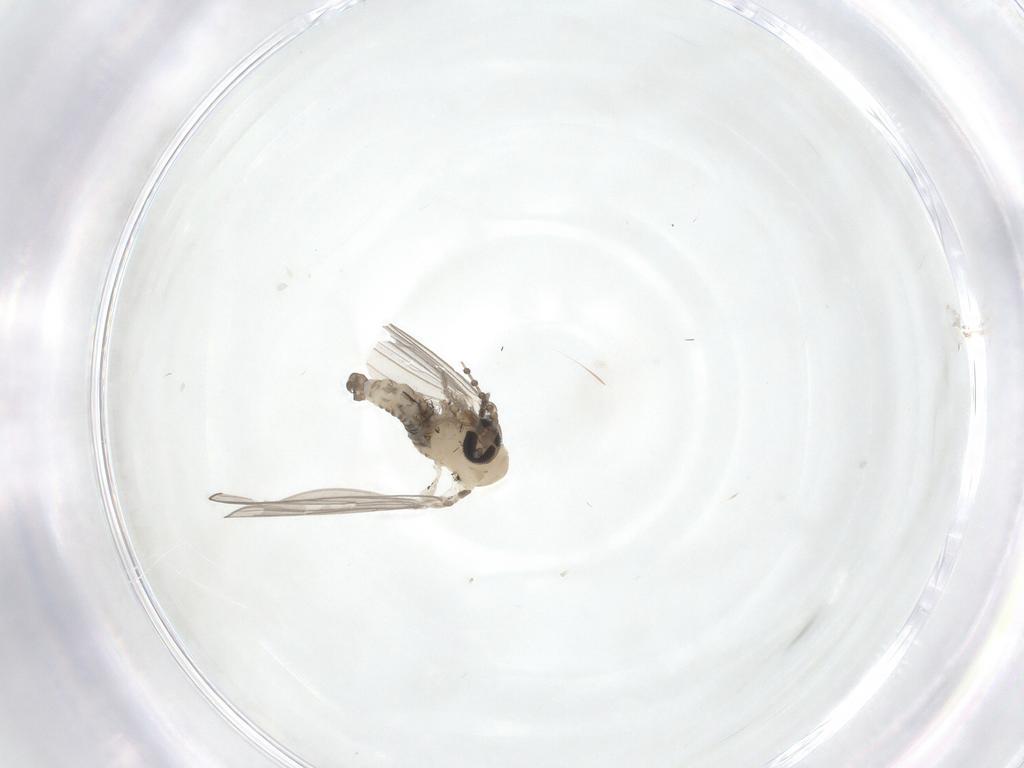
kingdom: Animalia
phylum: Arthropoda
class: Insecta
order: Diptera
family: Psychodidae
